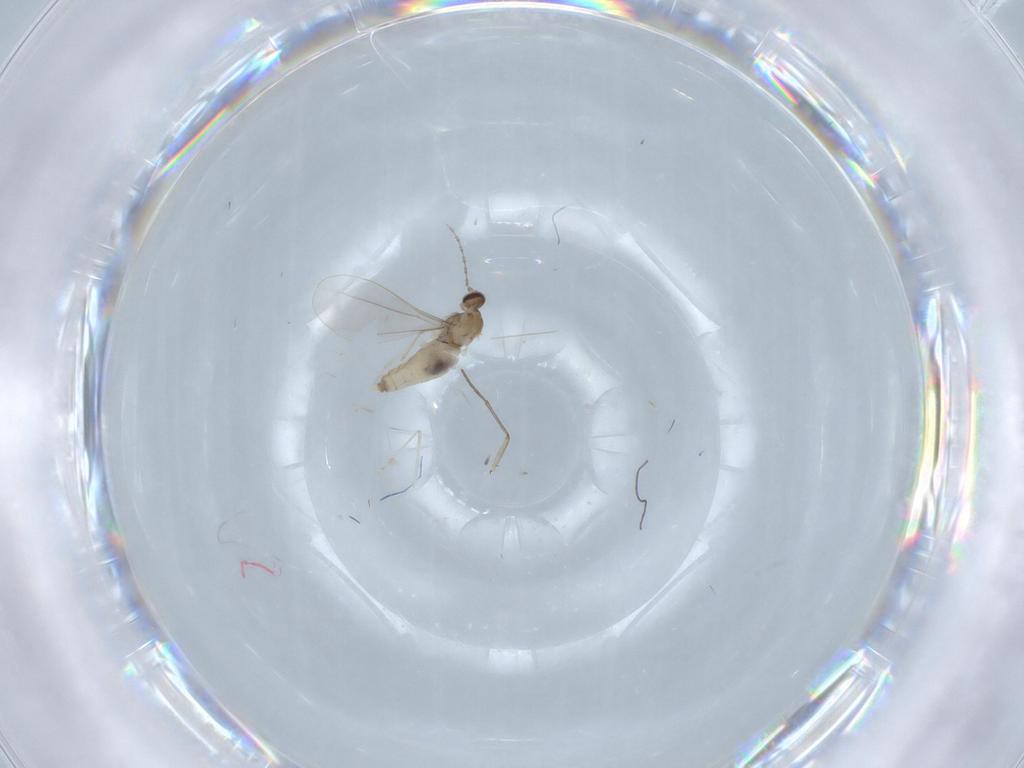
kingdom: Animalia
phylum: Arthropoda
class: Insecta
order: Diptera
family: Cecidomyiidae
